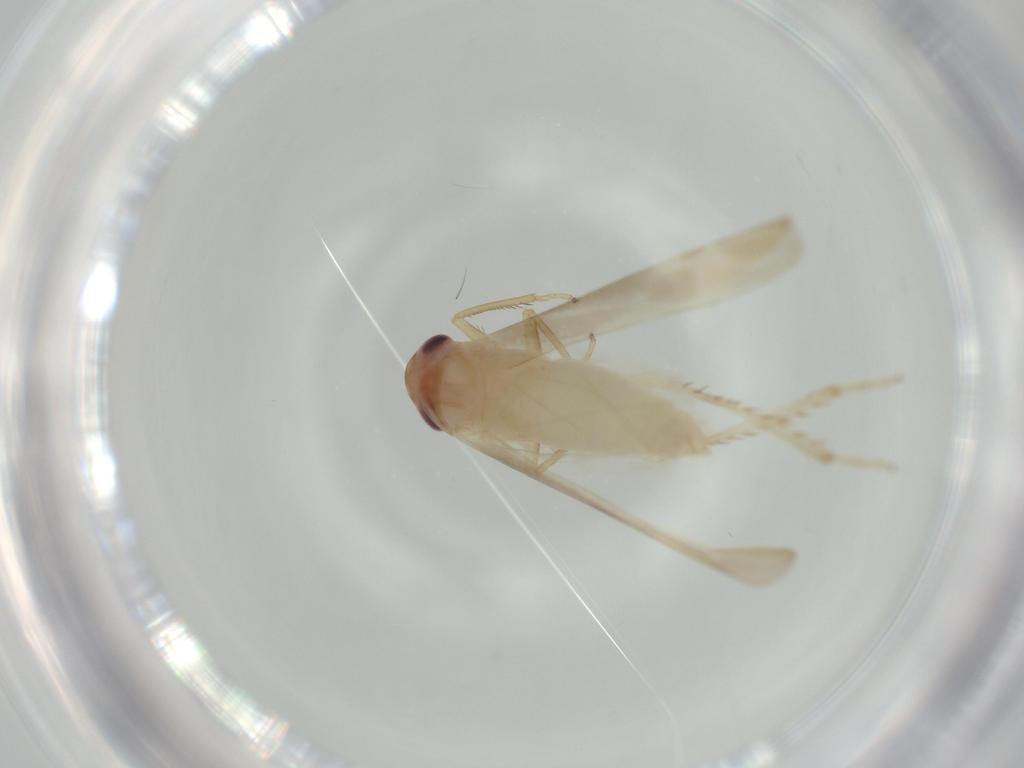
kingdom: Animalia
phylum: Arthropoda
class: Insecta
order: Hemiptera
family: Cicadellidae
